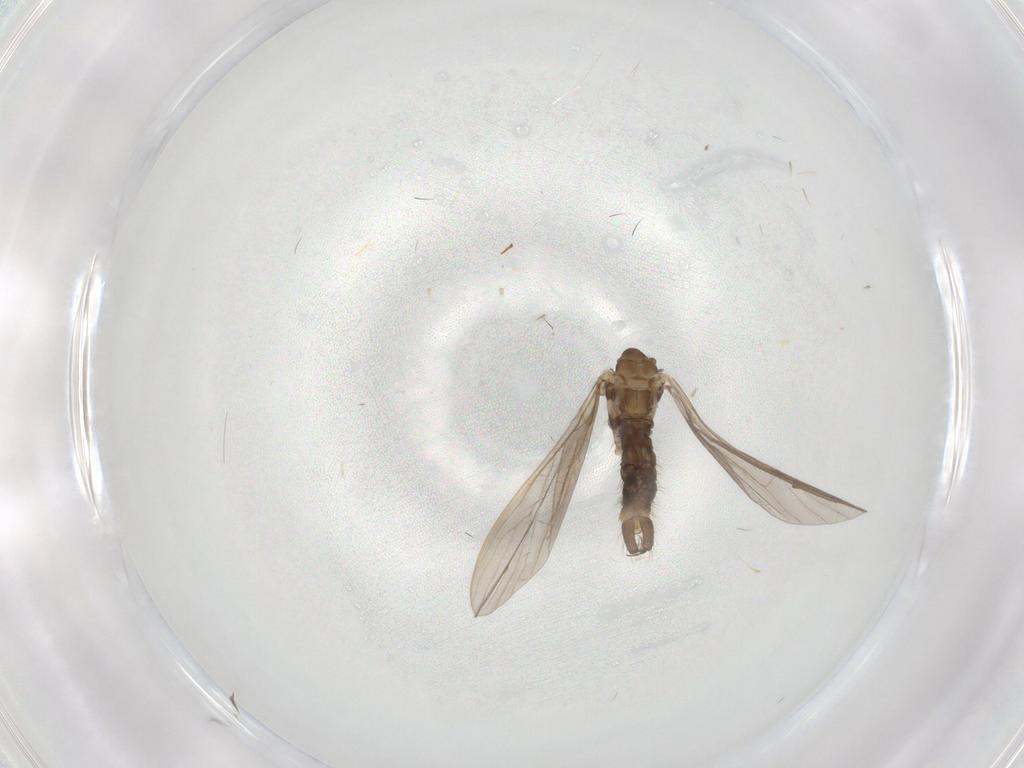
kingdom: Animalia
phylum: Arthropoda
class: Insecta
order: Diptera
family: Limoniidae
